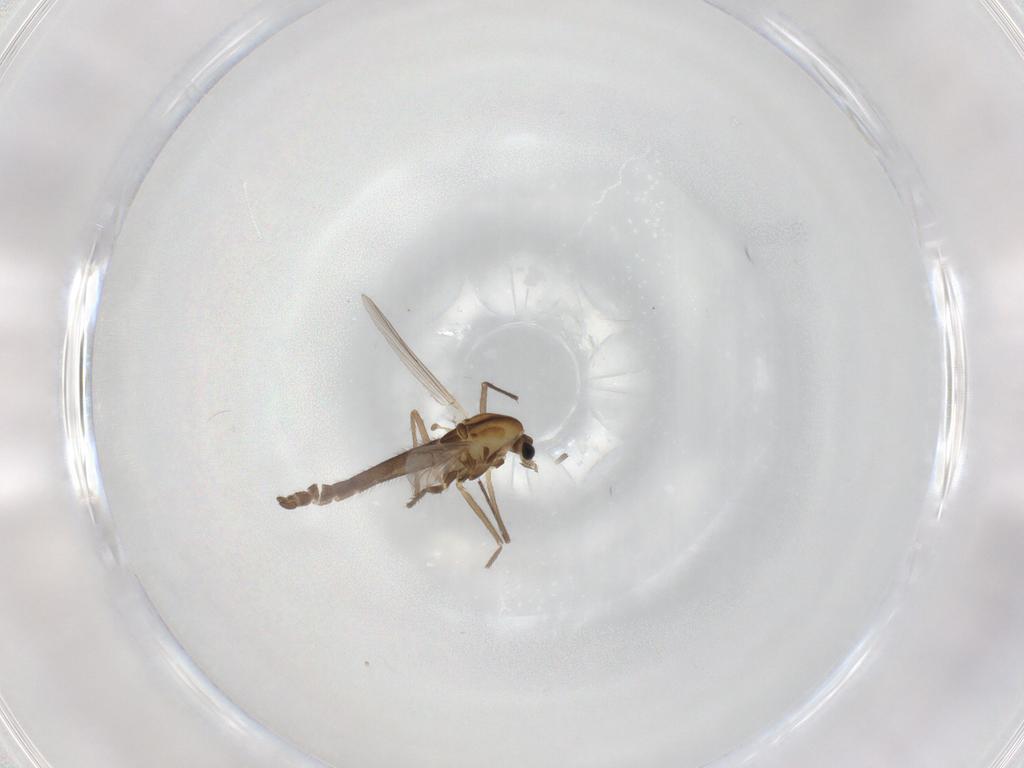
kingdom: Animalia
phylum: Arthropoda
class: Insecta
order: Diptera
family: Chironomidae
